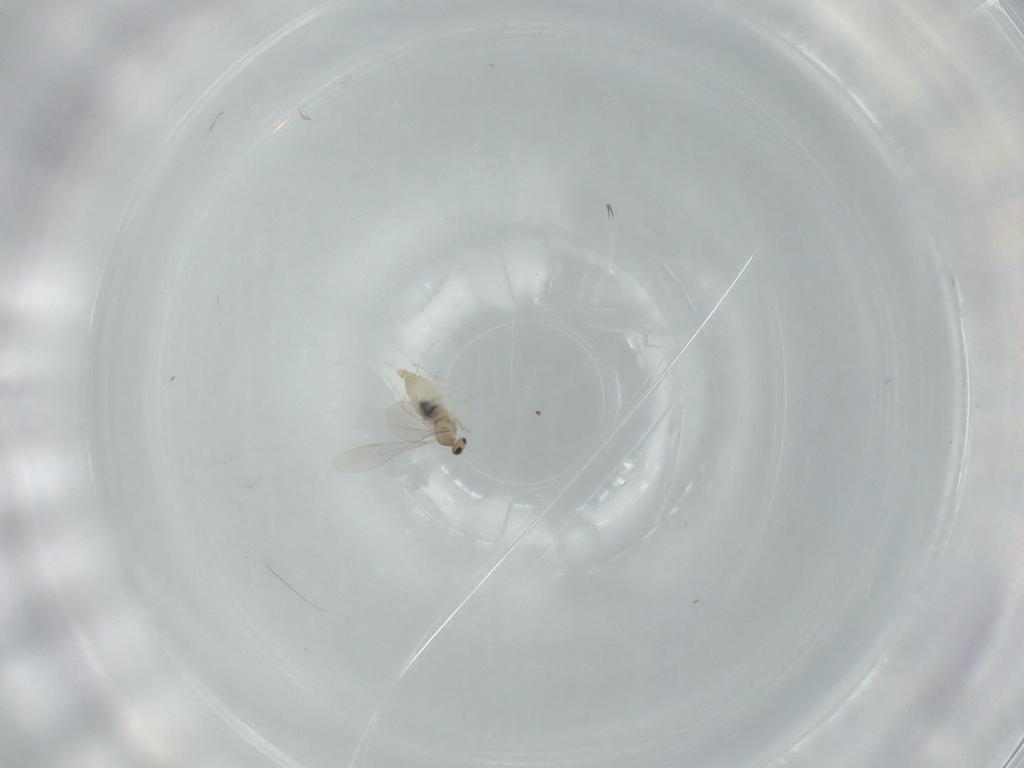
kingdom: Animalia
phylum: Arthropoda
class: Insecta
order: Diptera
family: Cecidomyiidae
